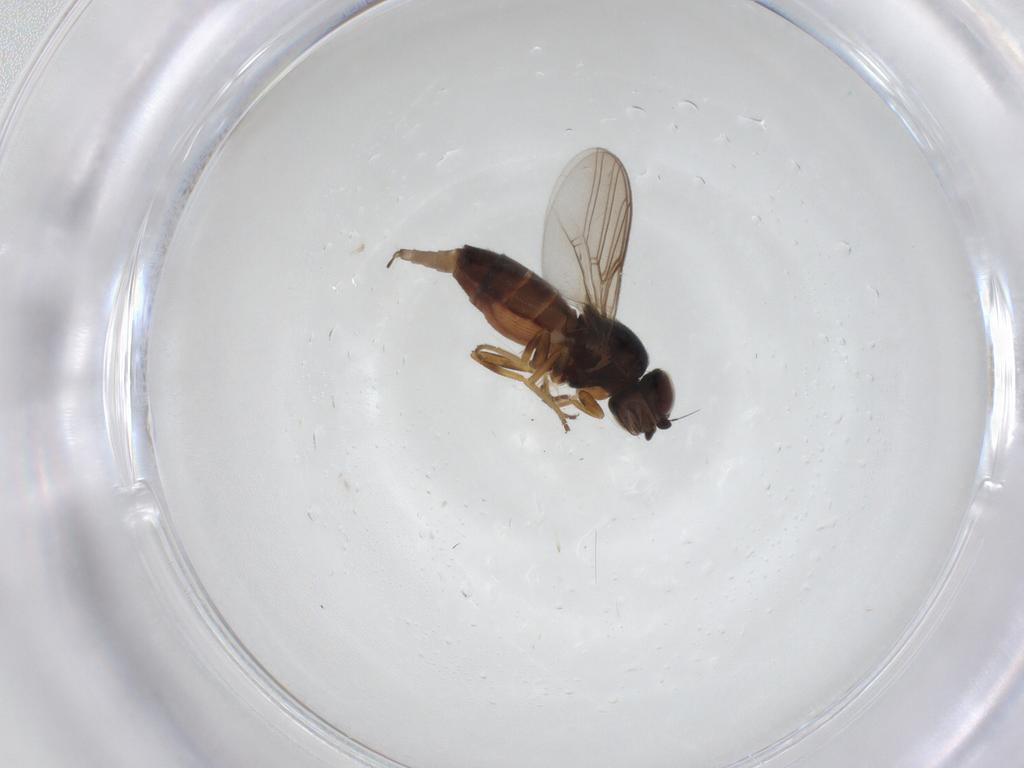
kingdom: Animalia
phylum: Arthropoda
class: Insecta
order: Diptera
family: Chloropidae
